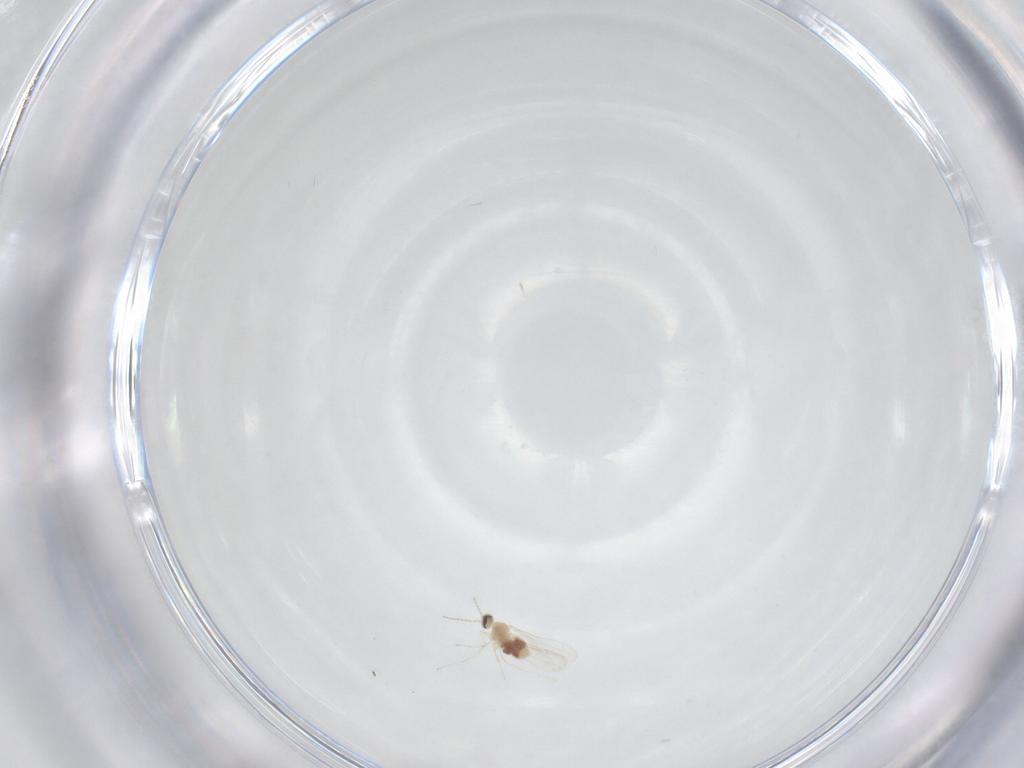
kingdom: Animalia
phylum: Arthropoda
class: Insecta
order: Diptera
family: Cecidomyiidae
